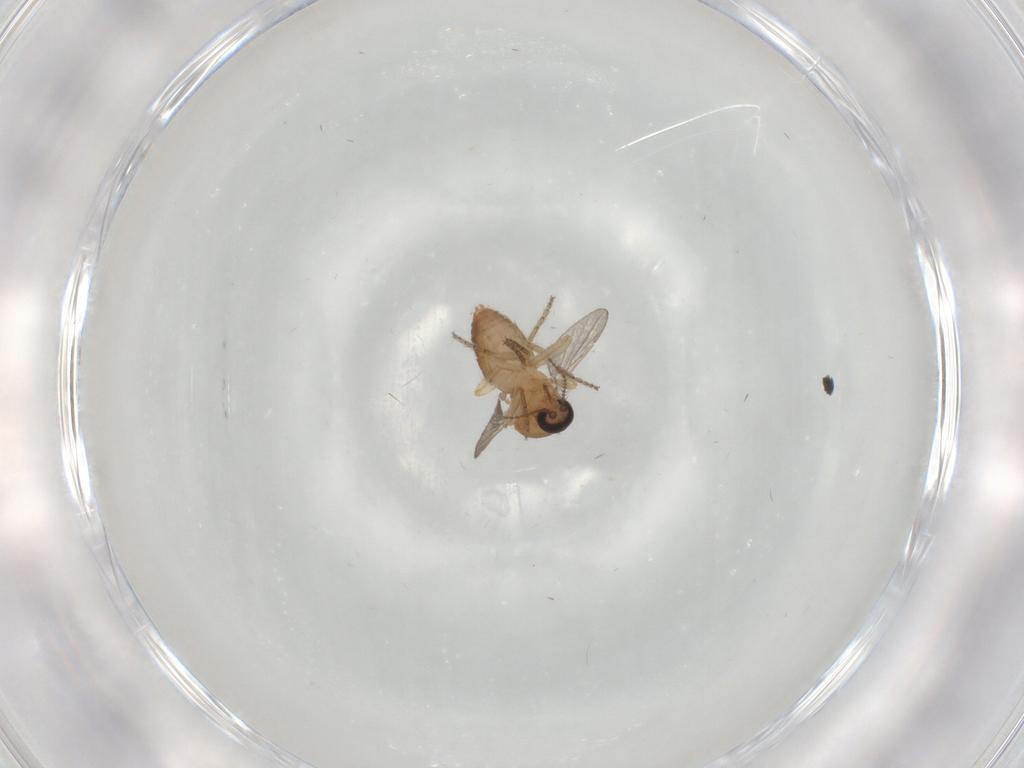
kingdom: Animalia
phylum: Arthropoda
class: Insecta
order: Diptera
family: Ceratopogonidae
